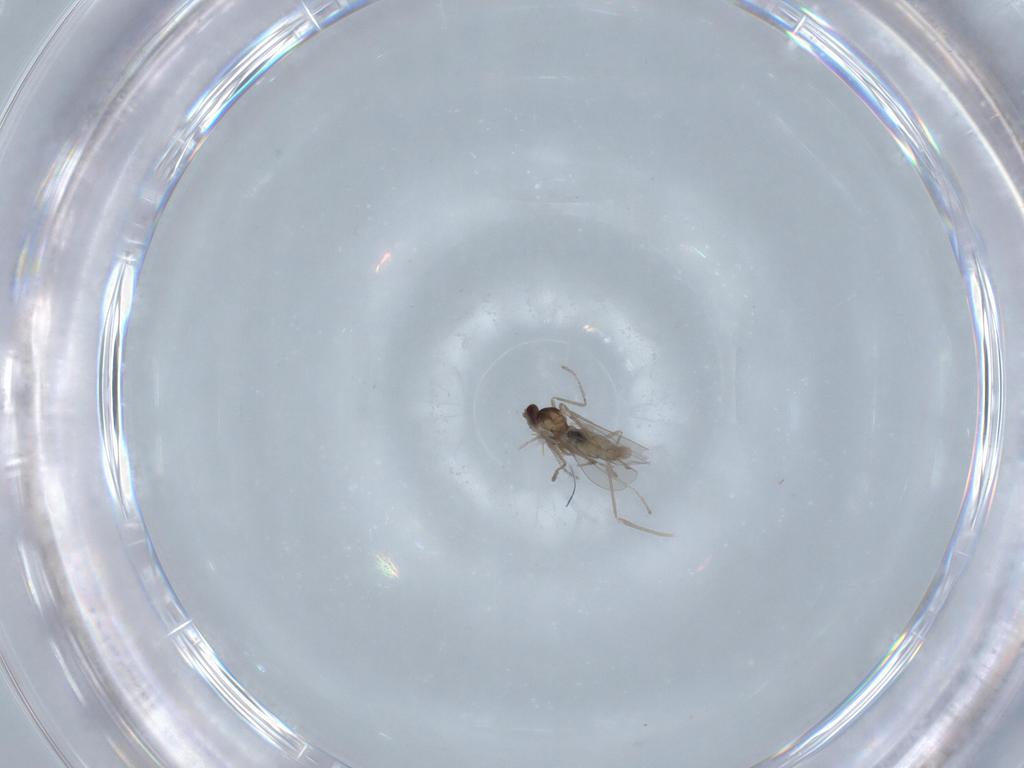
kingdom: Animalia
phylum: Arthropoda
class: Insecta
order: Diptera
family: Cecidomyiidae
